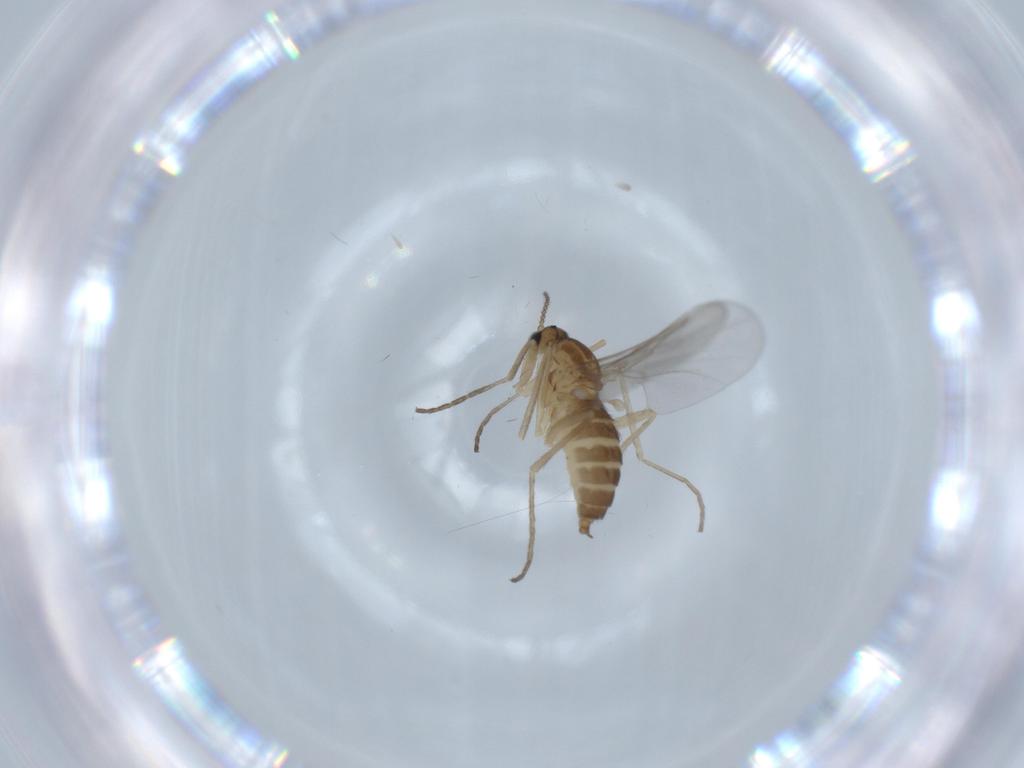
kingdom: Animalia
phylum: Arthropoda
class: Insecta
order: Diptera
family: Cecidomyiidae
